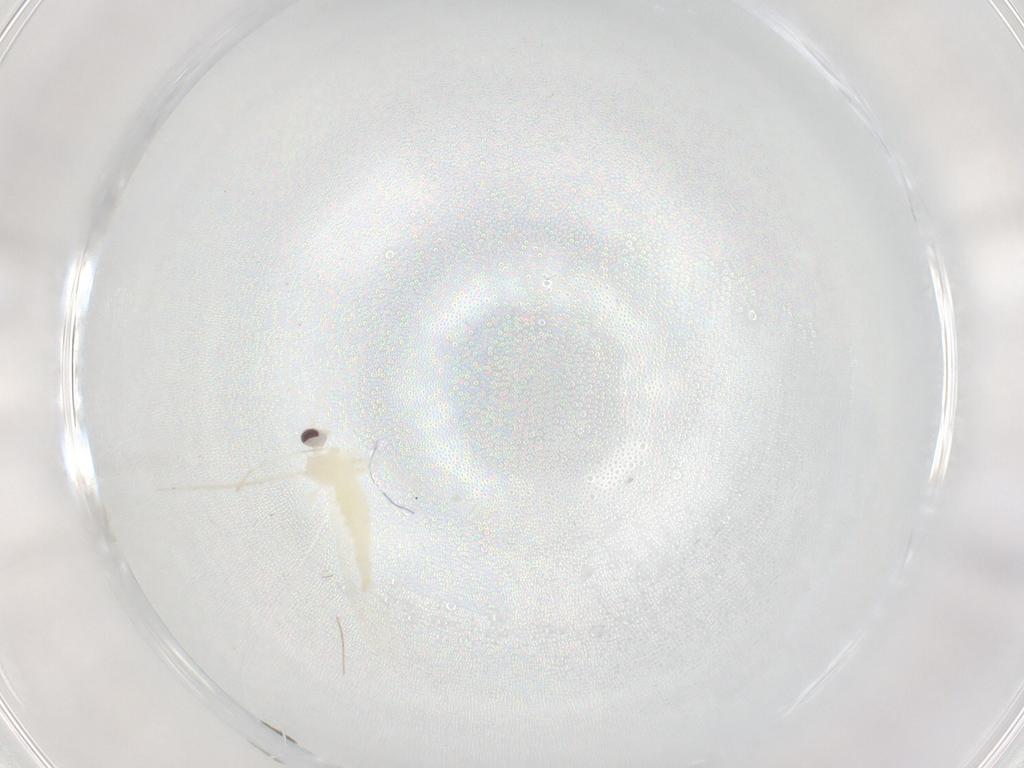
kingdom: Animalia
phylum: Arthropoda
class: Insecta
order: Diptera
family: Cecidomyiidae
